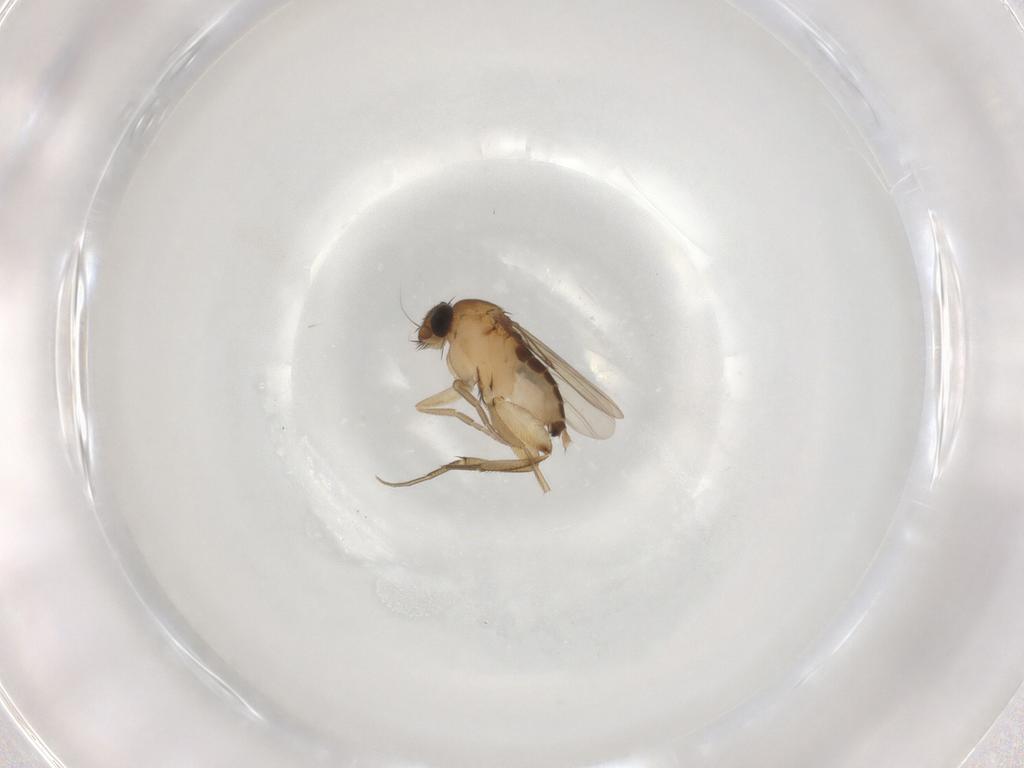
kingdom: Animalia
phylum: Arthropoda
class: Insecta
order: Diptera
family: Phoridae
